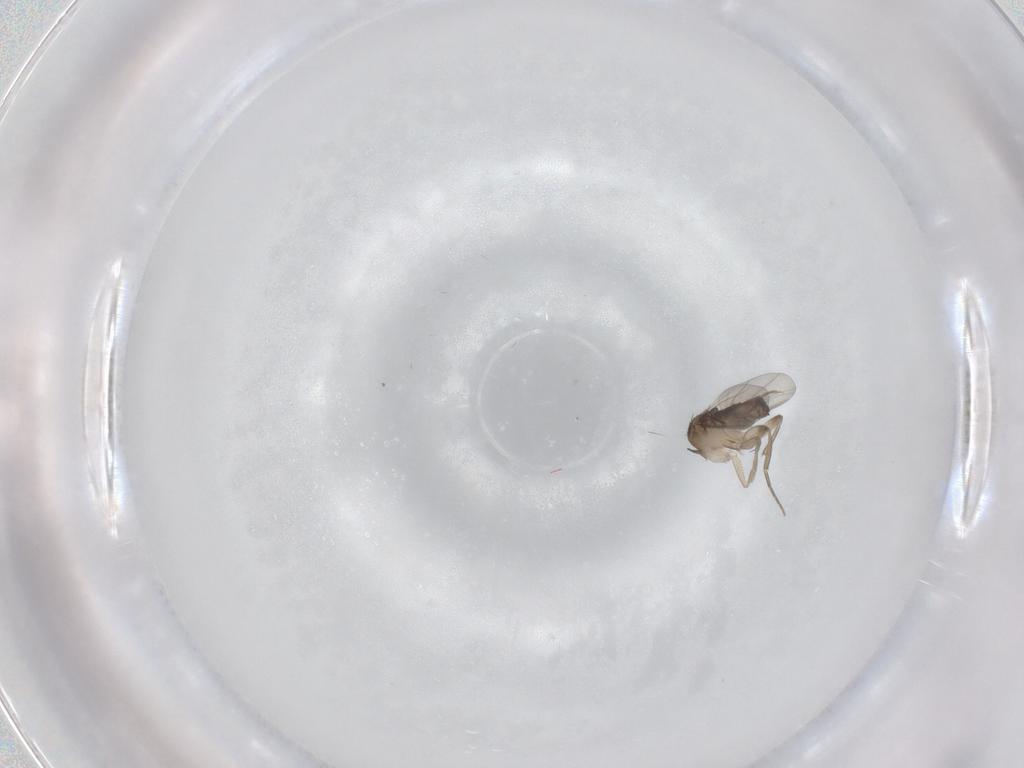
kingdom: Animalia
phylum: Arthropoda
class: Insecta
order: Diptera
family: Phoridae
